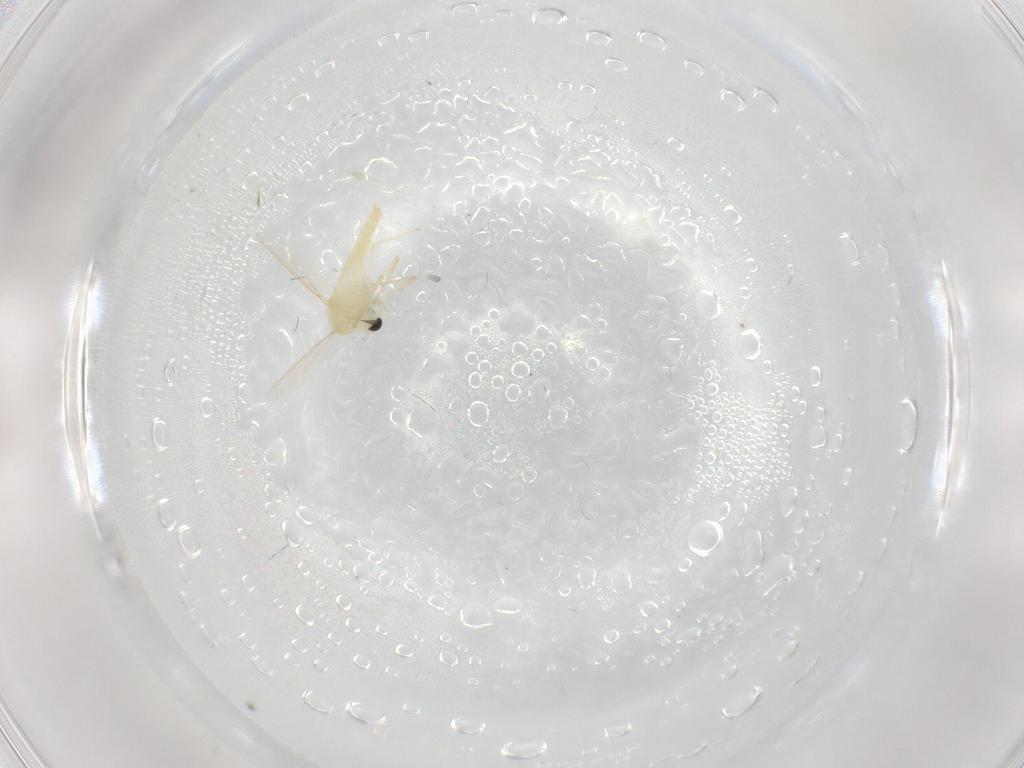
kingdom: Animalia
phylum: Arthropoda
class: Insecta
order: Diptera
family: Chironomidae
